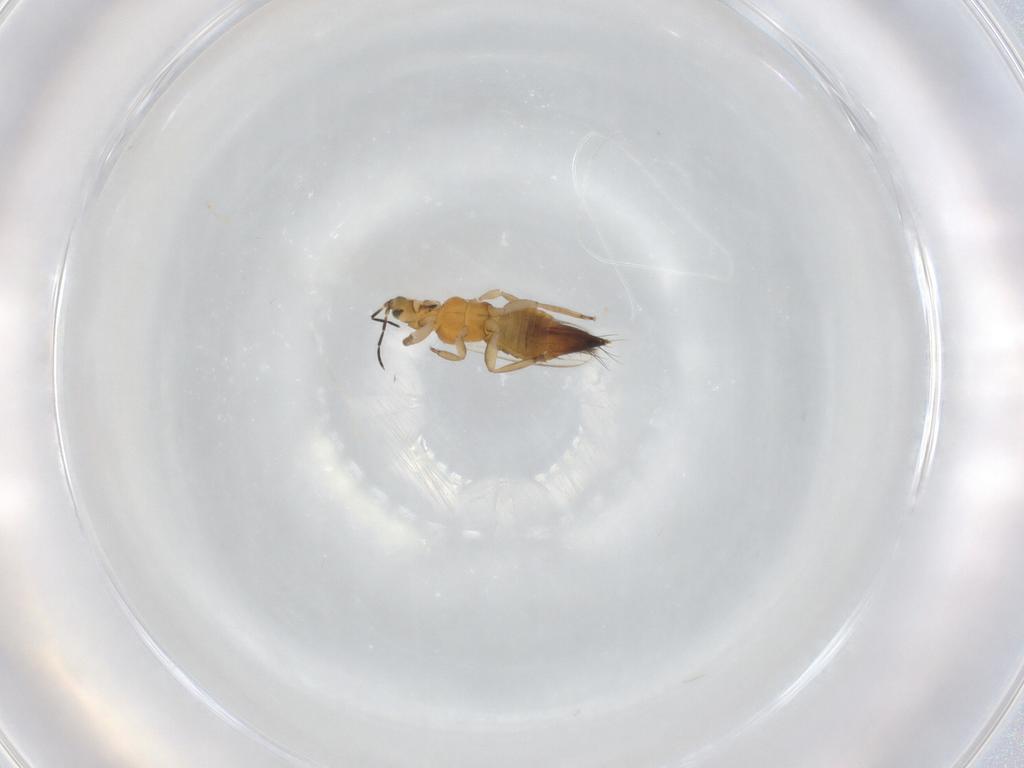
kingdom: Animalia
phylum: Arthropoda
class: Insecta
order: Thysanoptera
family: Aeolothripidae
